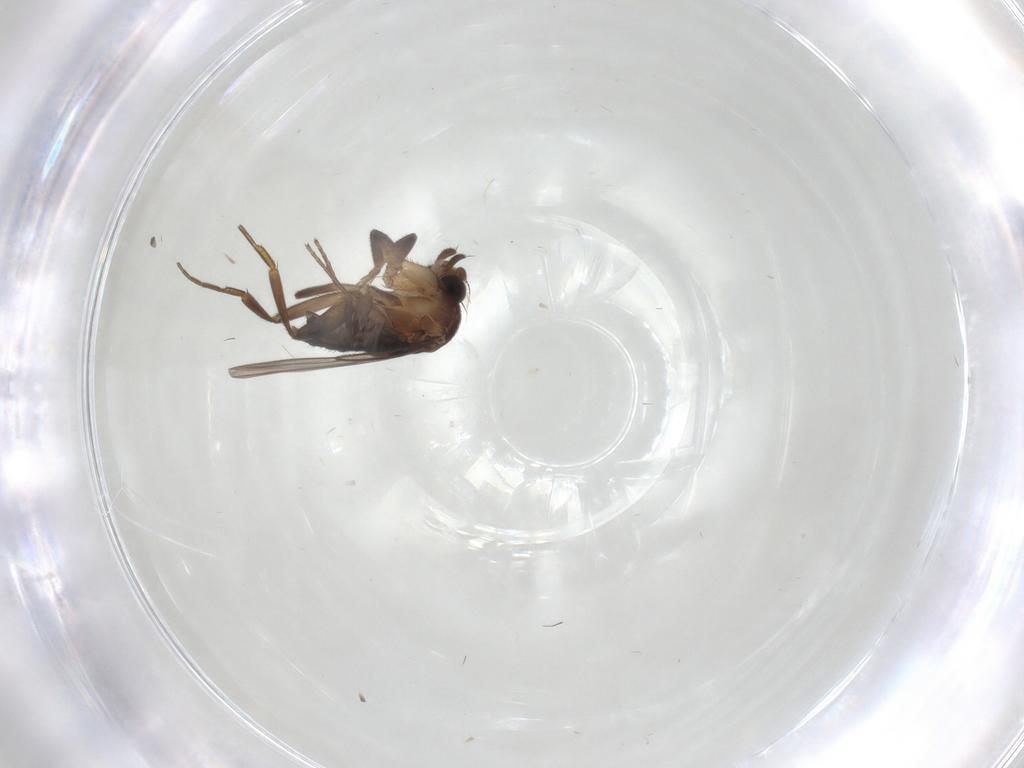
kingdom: Animalia
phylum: Arthropoda
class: Insecta
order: Diptera
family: Phoridae
